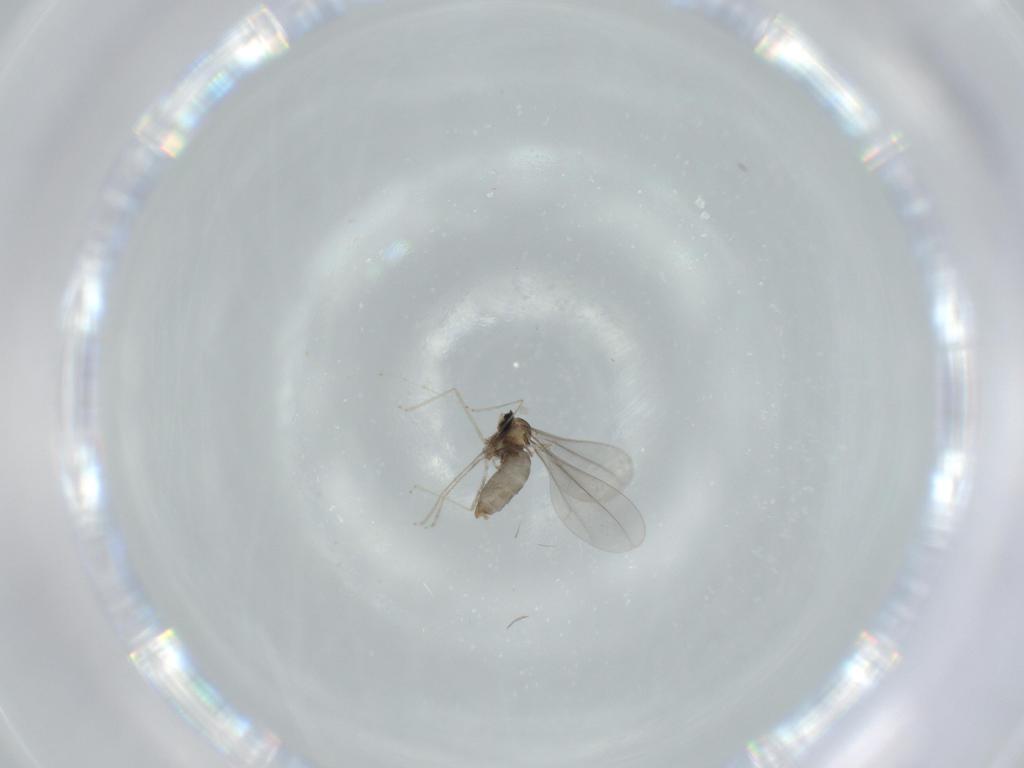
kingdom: Animalia
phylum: Arthropoda
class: Insecta
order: Diptera
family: Cecidomyiidae
